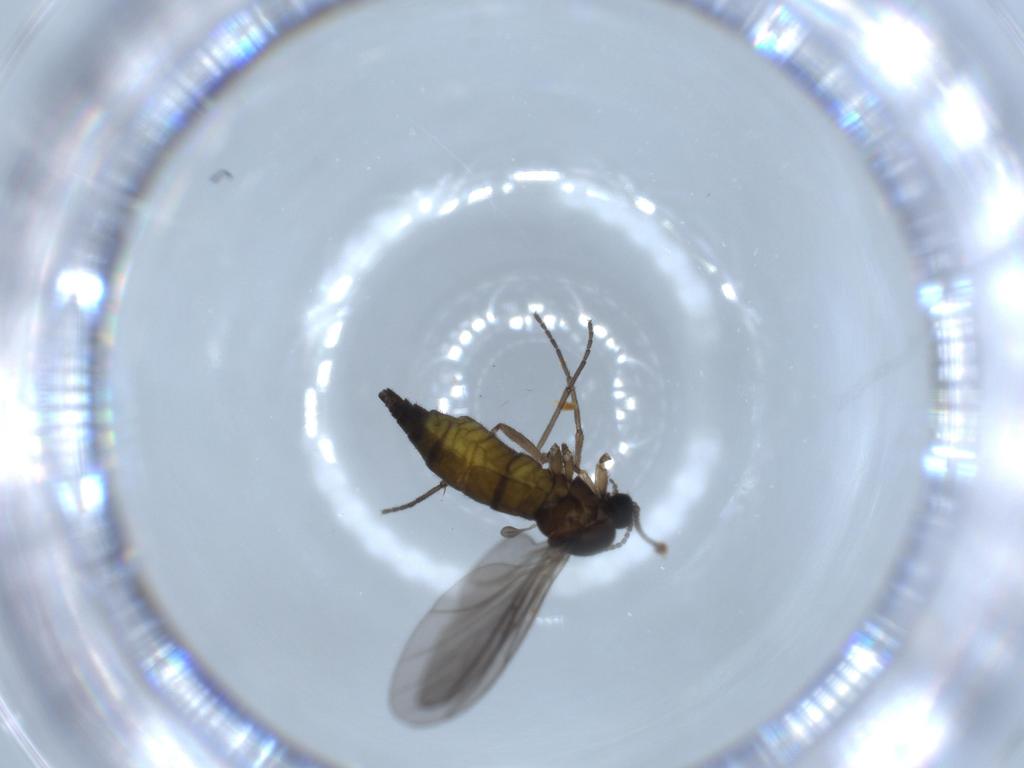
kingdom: Animalia
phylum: Arthropoda
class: Insecta
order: Diptera
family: Sciaridae
